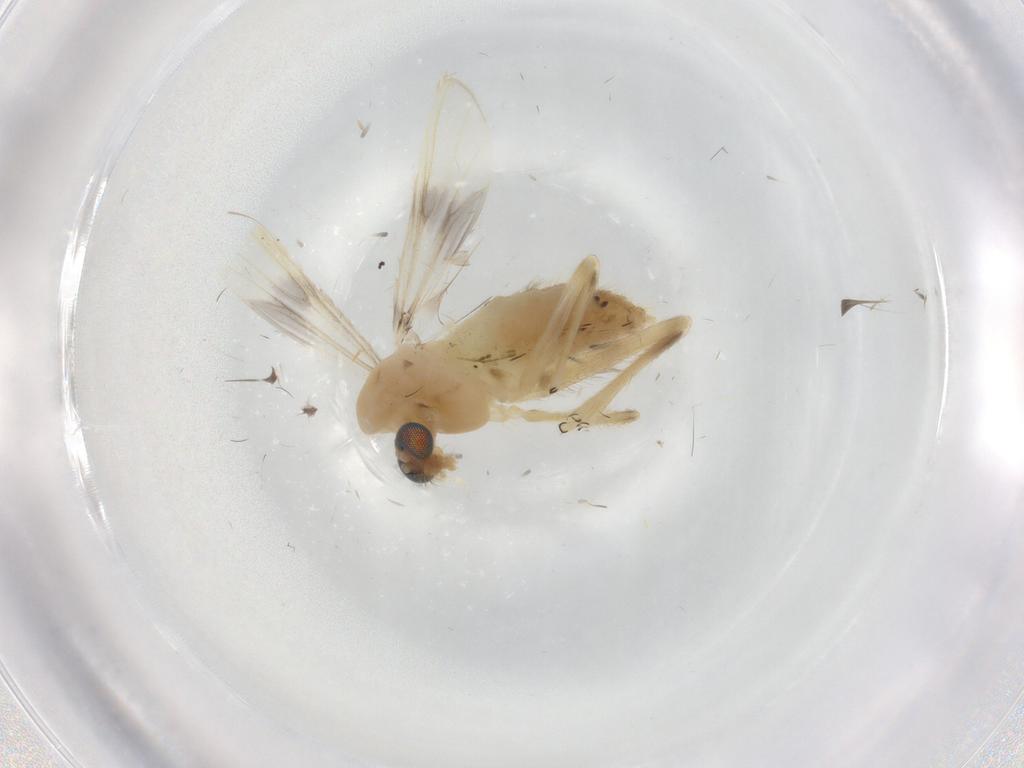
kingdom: Animalia
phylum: Arthropoda
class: Insecta
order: Diptera
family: Chironomidae
